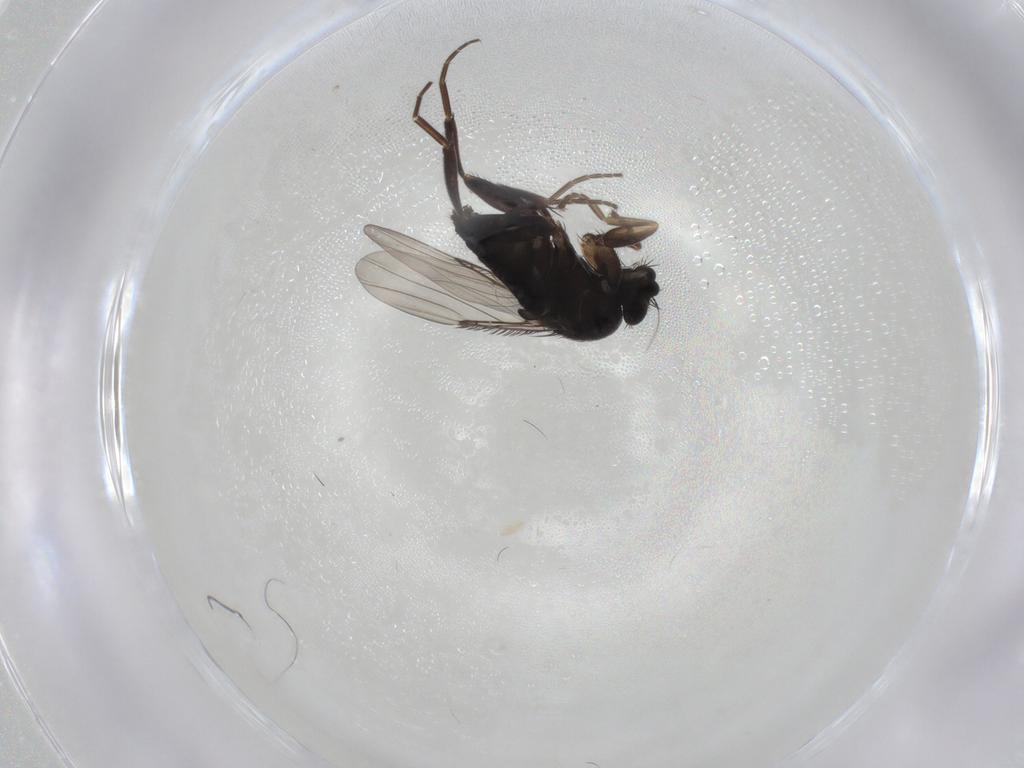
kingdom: Animalia
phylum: Arthropoda
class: Insecta
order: Diptera
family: Phoridae
